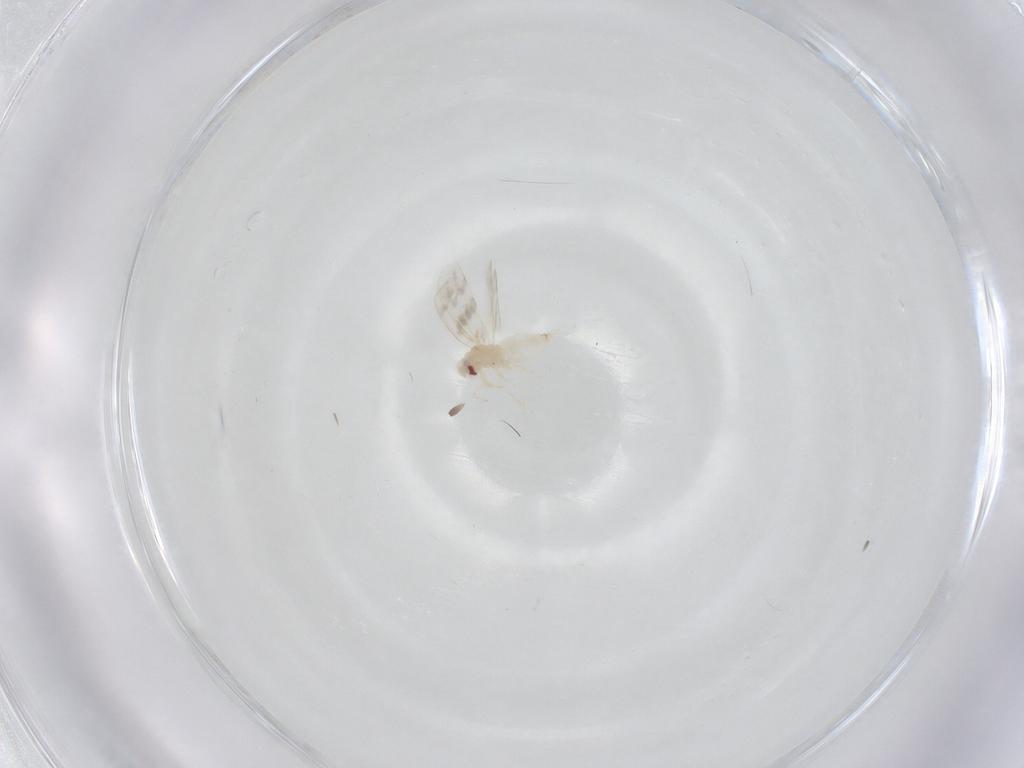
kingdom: Animalia
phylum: Arthropoda
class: Insecta
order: Hemiptera
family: Aleyrodidae
